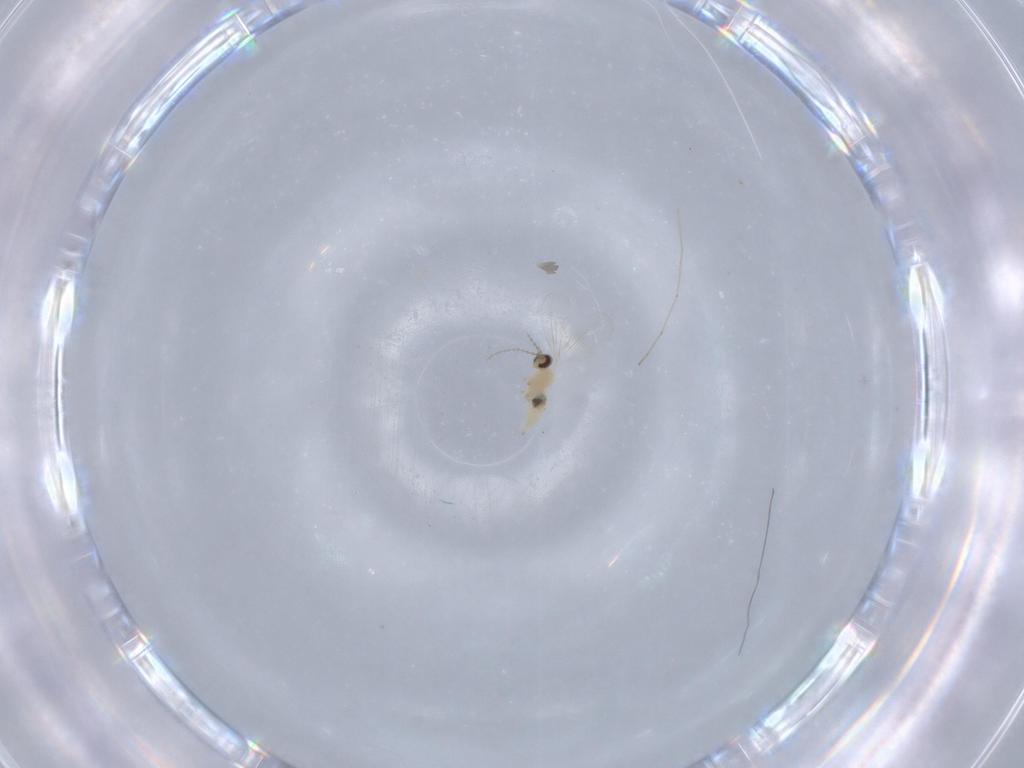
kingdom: Animalia
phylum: Arthropoda
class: Insecta
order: Diptera
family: Cecidomyiidae
